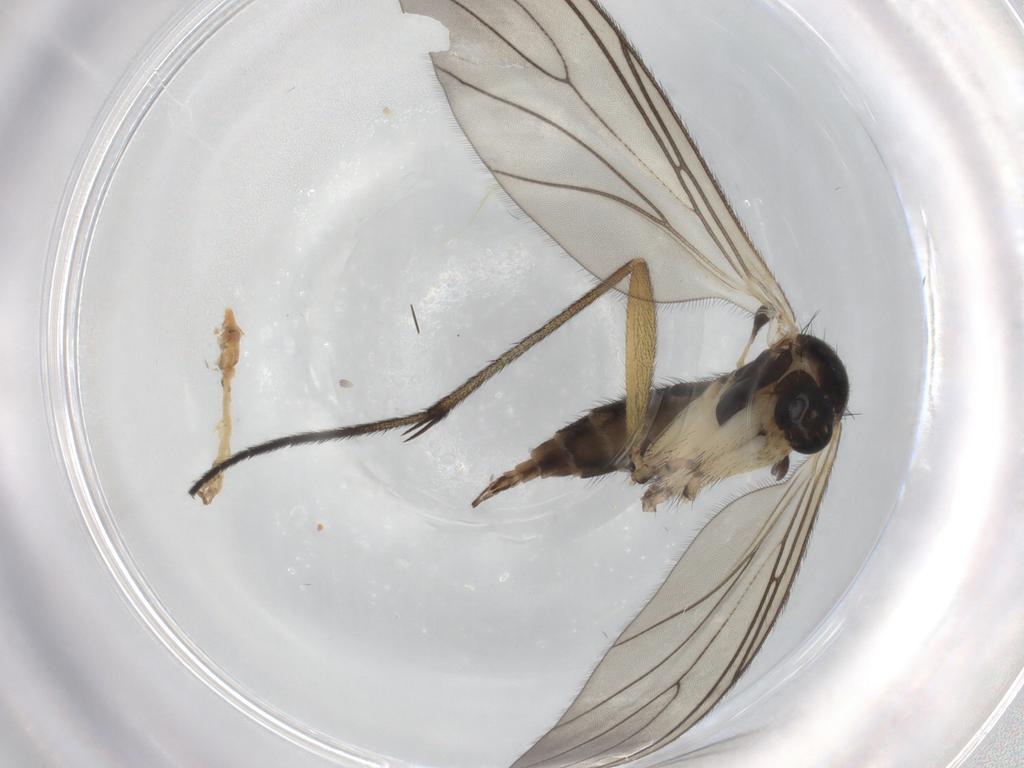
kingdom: Animalia
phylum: Arthropoda
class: Insecta
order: Diptera
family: Sciaridae
